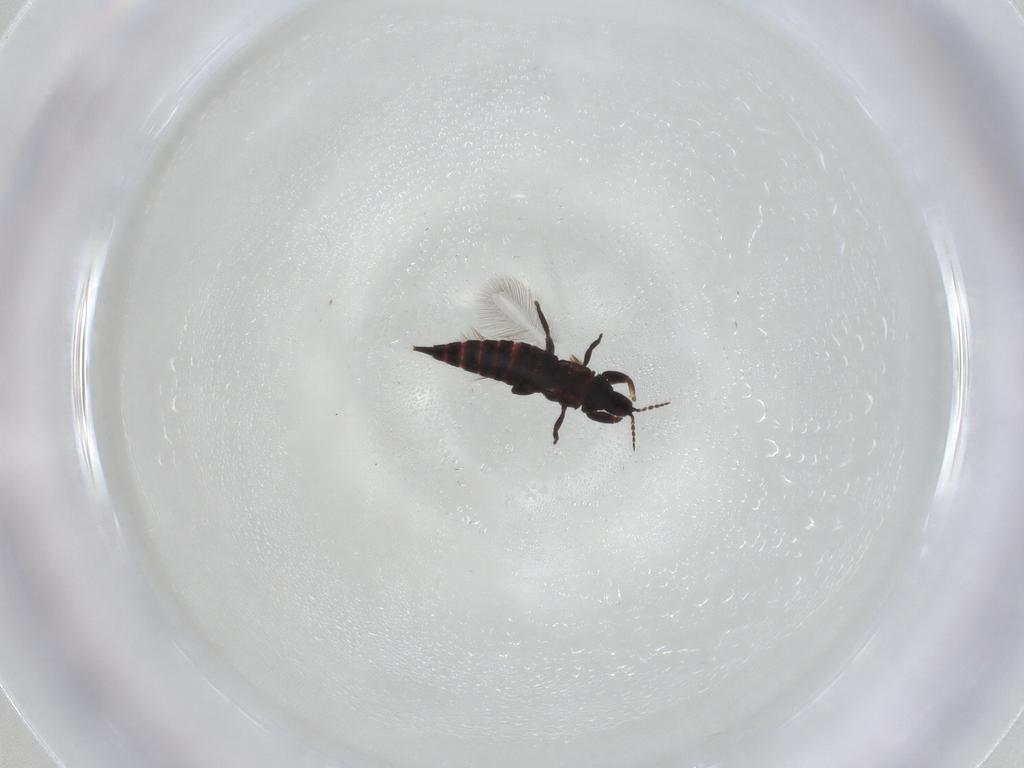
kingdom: Animalia
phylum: Arthropoda
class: Insecta
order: Thysanoptera
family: Phlaeothripidae
